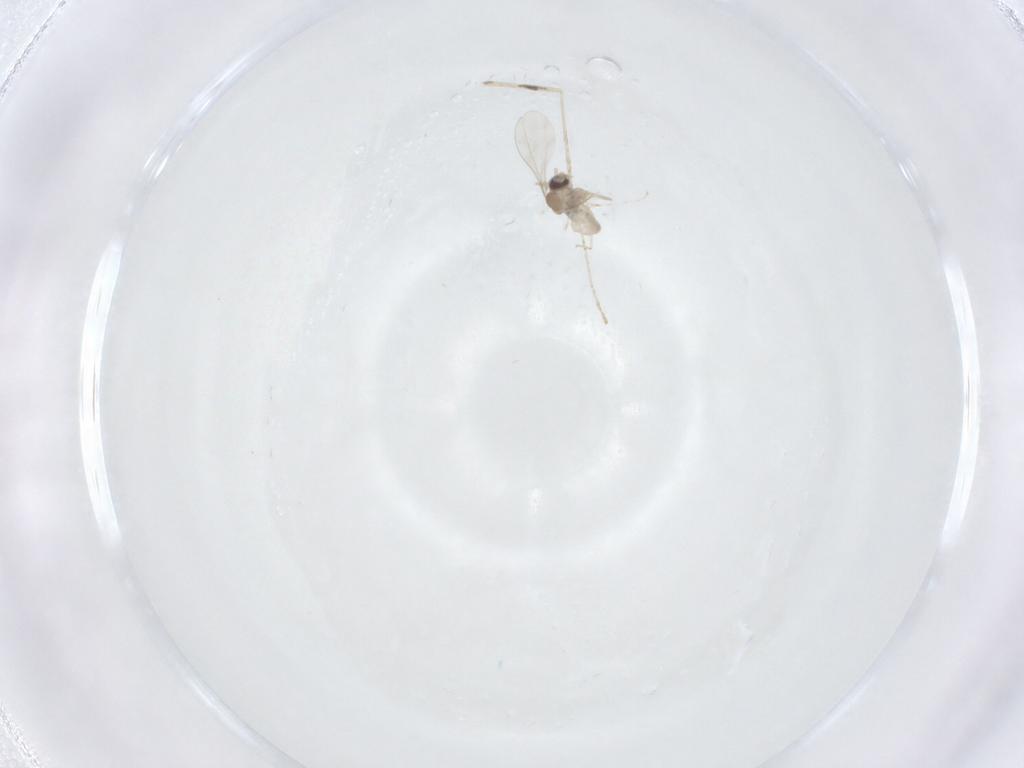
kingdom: Animalia
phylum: Arthropoda
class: Insecta
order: Diptera
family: Cecidomyiidae
